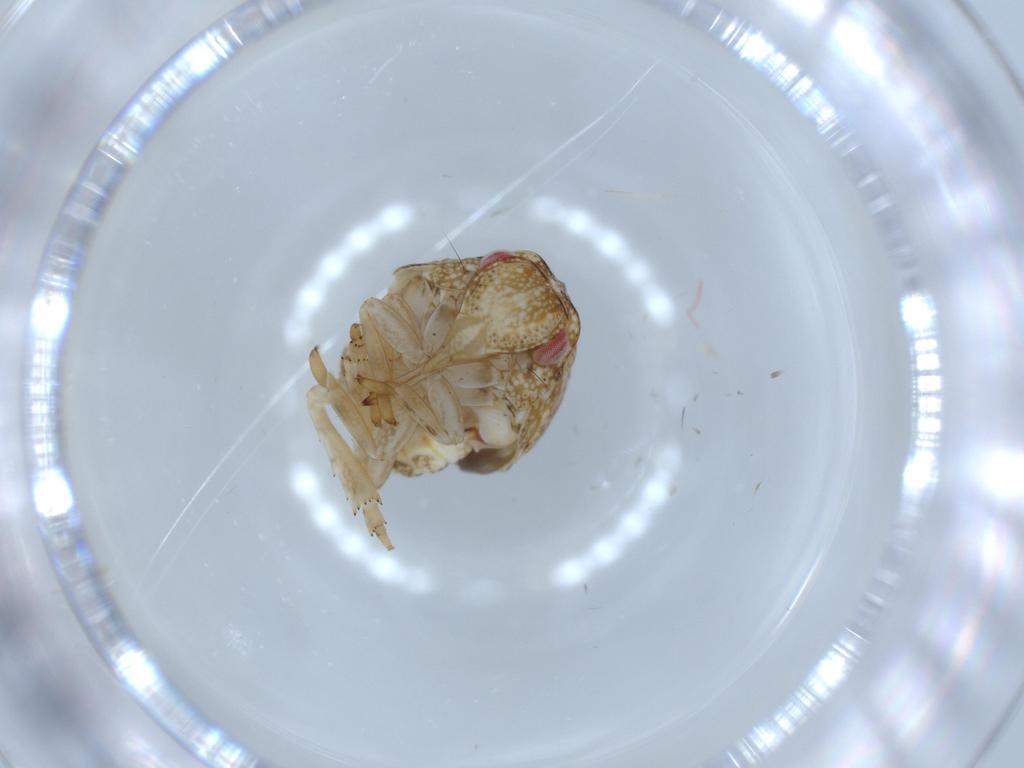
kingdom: Animalia
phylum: Arthropoda
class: Insecta
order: Hemiptera
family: Acanaloniidae
